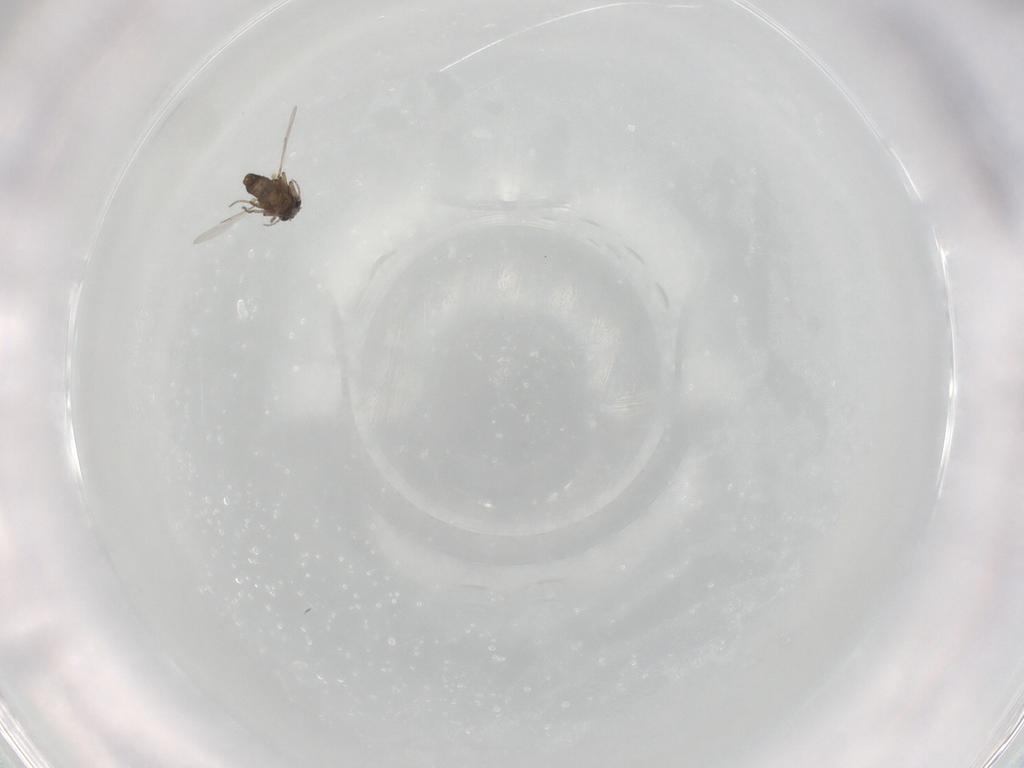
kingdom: Animalia
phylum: Arthropoda
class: Insecta
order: Diptera
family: Ceratopogonidae
